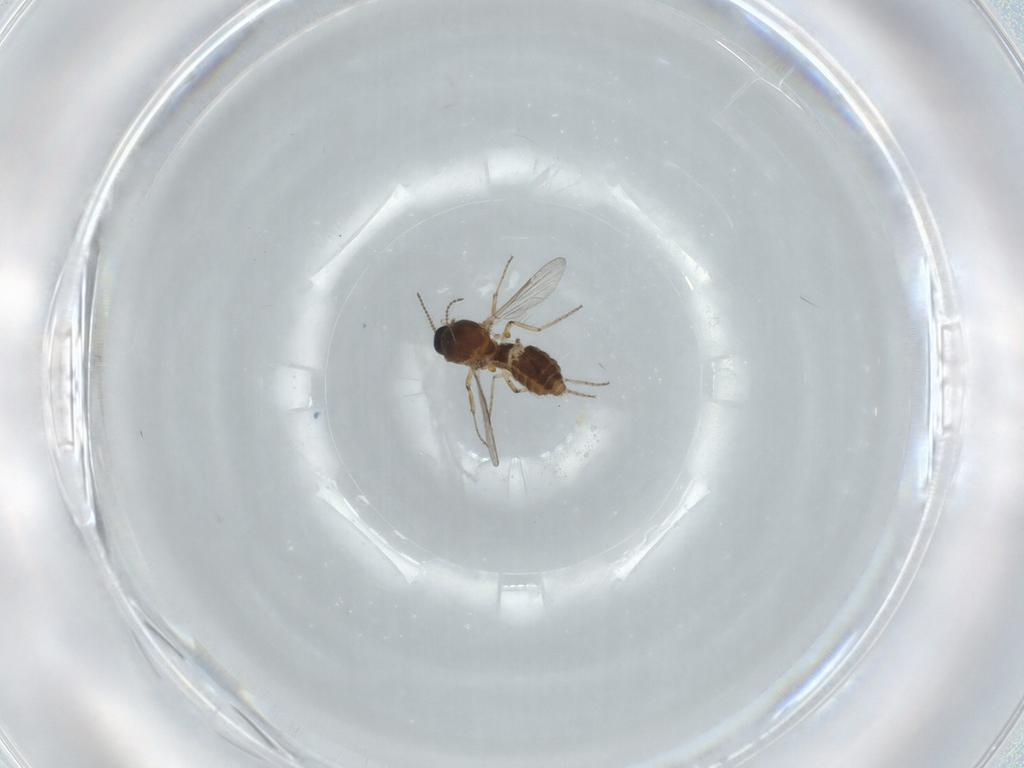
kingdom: Animalia
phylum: Arthropoda
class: Insecta
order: Diptera
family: Ceratopogonidae
